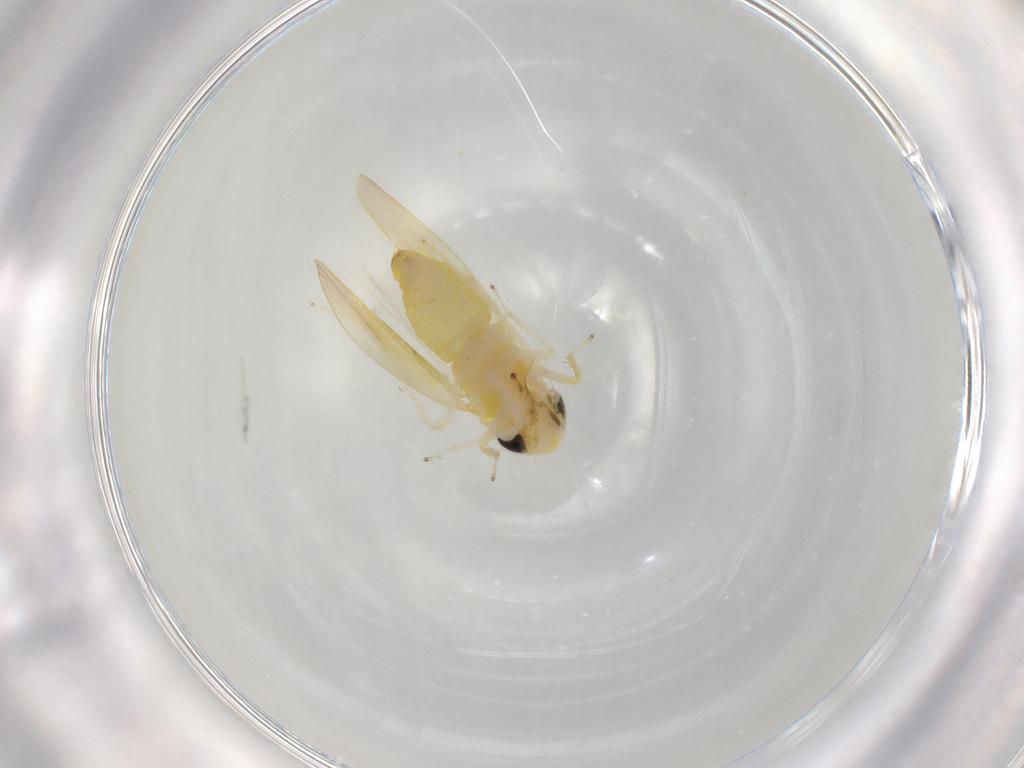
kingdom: Animalia
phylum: Arthropoda
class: Insecta
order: Hemiptera
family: Cicadellidae
